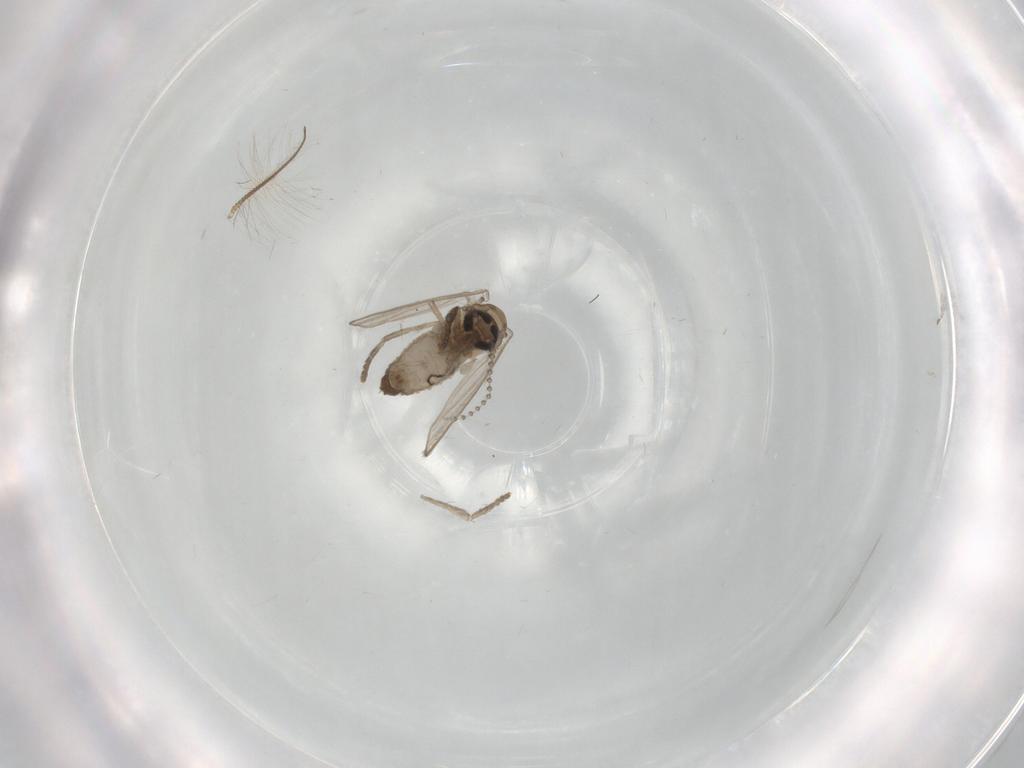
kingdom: Animalia
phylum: Arthropoda
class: Insecta
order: Diptera
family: Psychodidae
